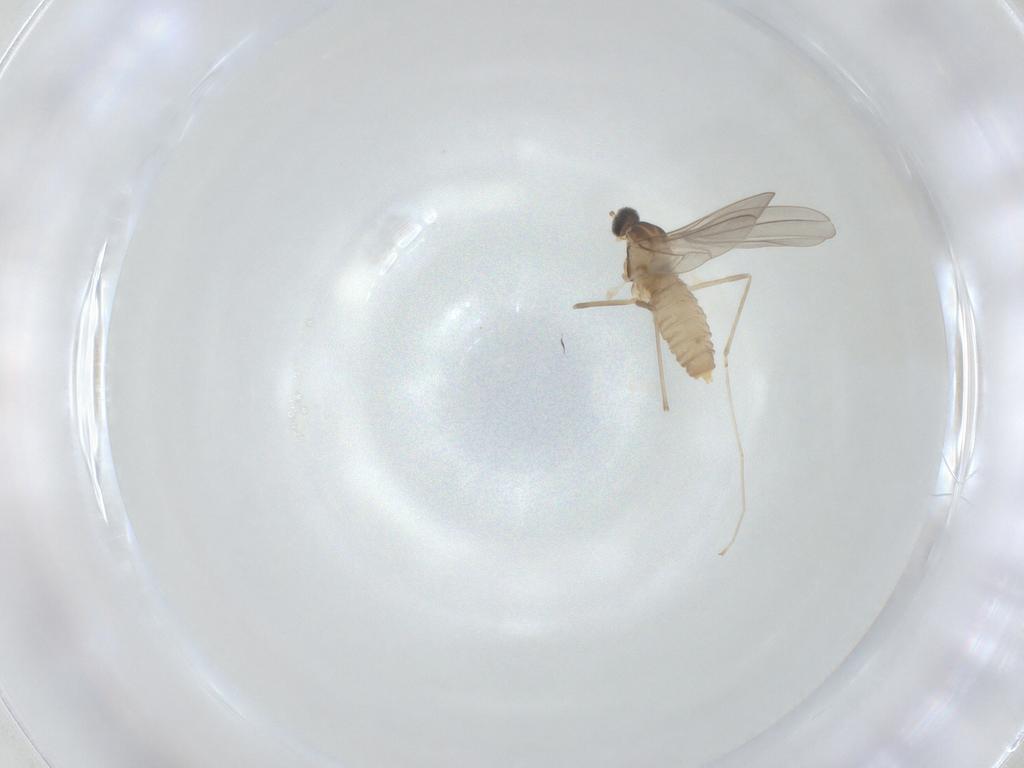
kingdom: Animalia
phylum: Arthropoda
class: Insecta
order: Diptera
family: Cecidomyiidae
